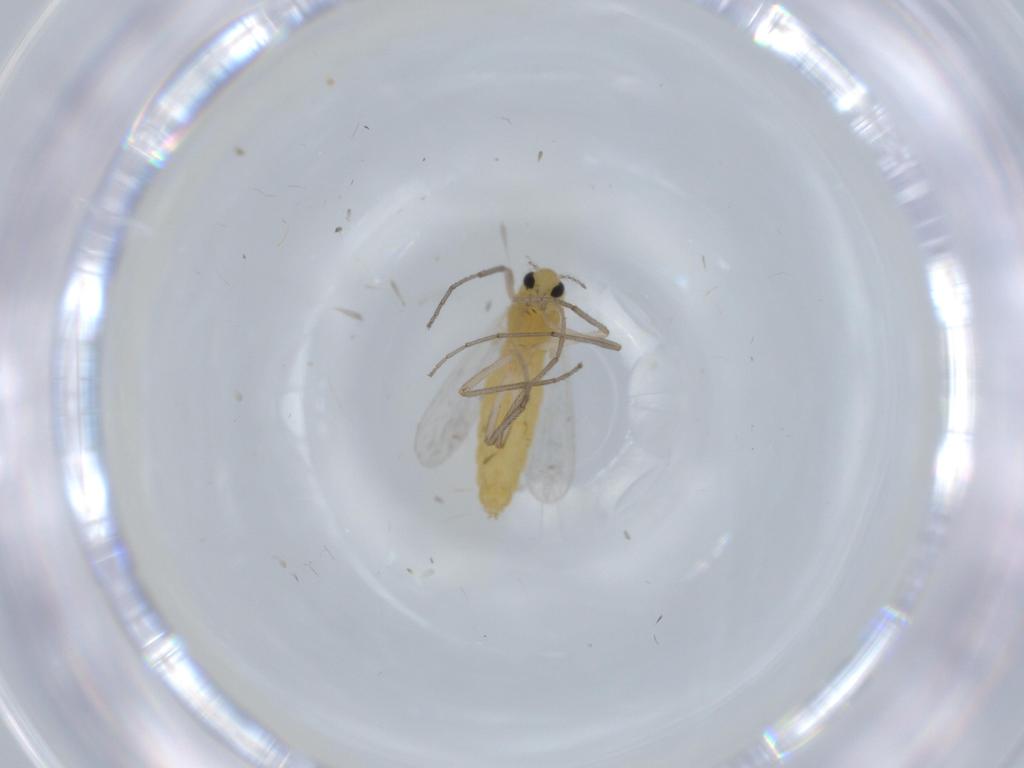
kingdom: Animalia
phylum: Arthropoda
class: Insecta
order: Diptera
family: Chironomidae
